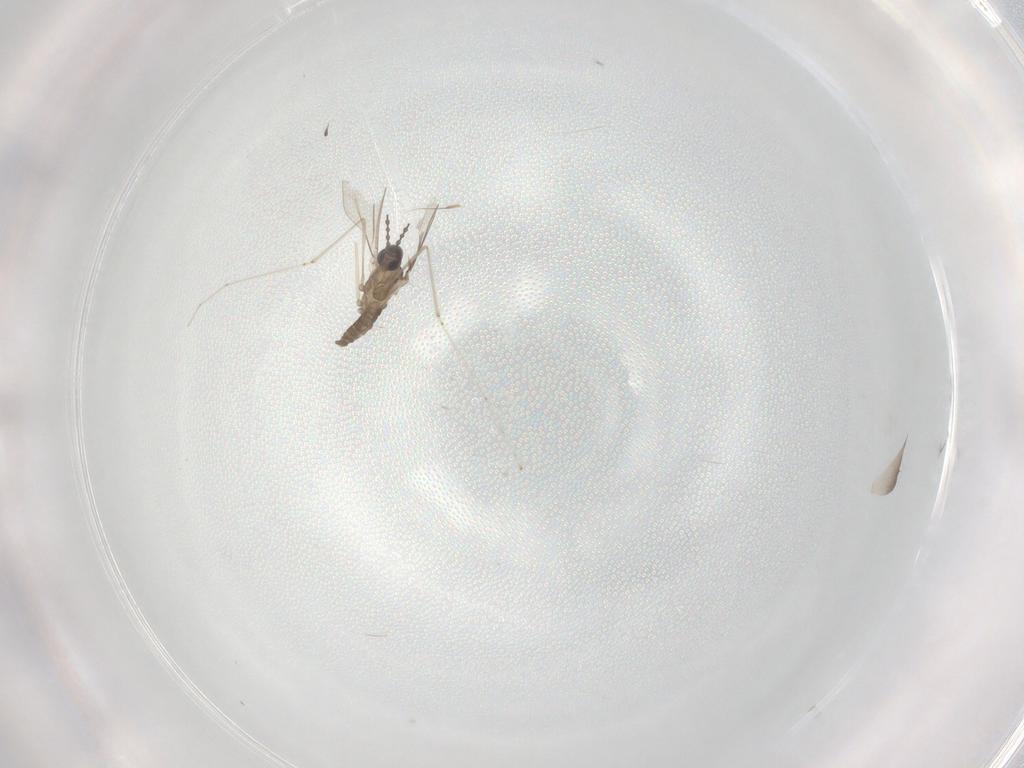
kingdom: Animalia
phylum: Arthropoda
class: Insecta
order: Diptera
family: Cecidomyiidae
